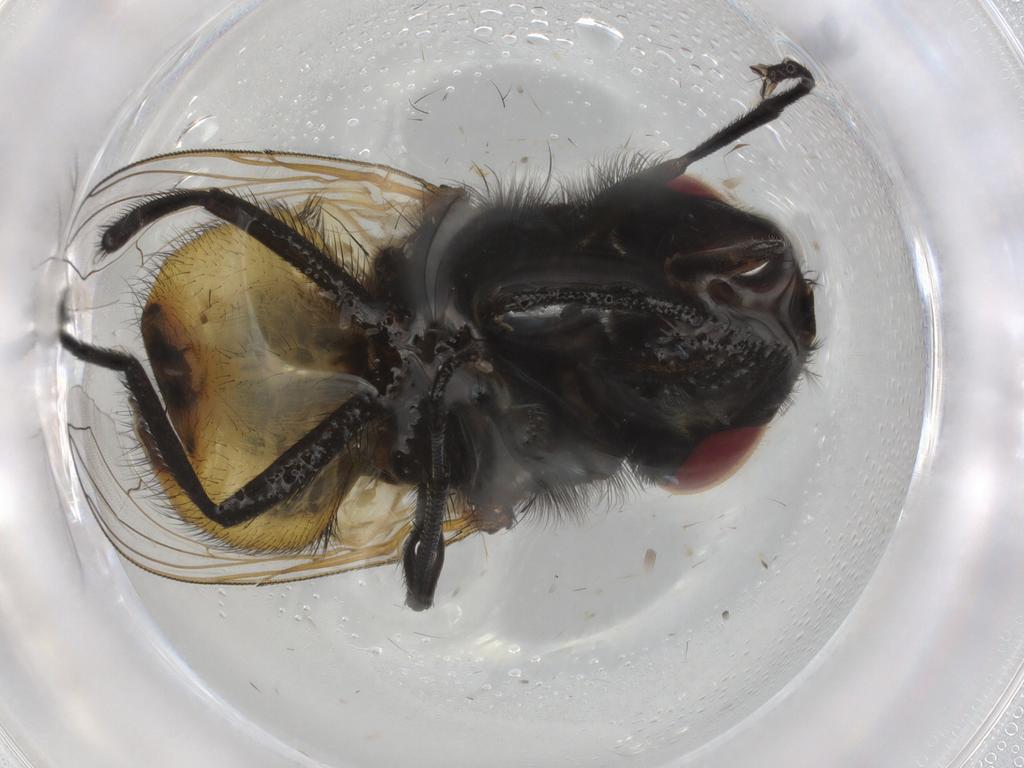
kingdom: Animalia
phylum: Arthropoda
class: Insecta
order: Diptera
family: Muscidae
